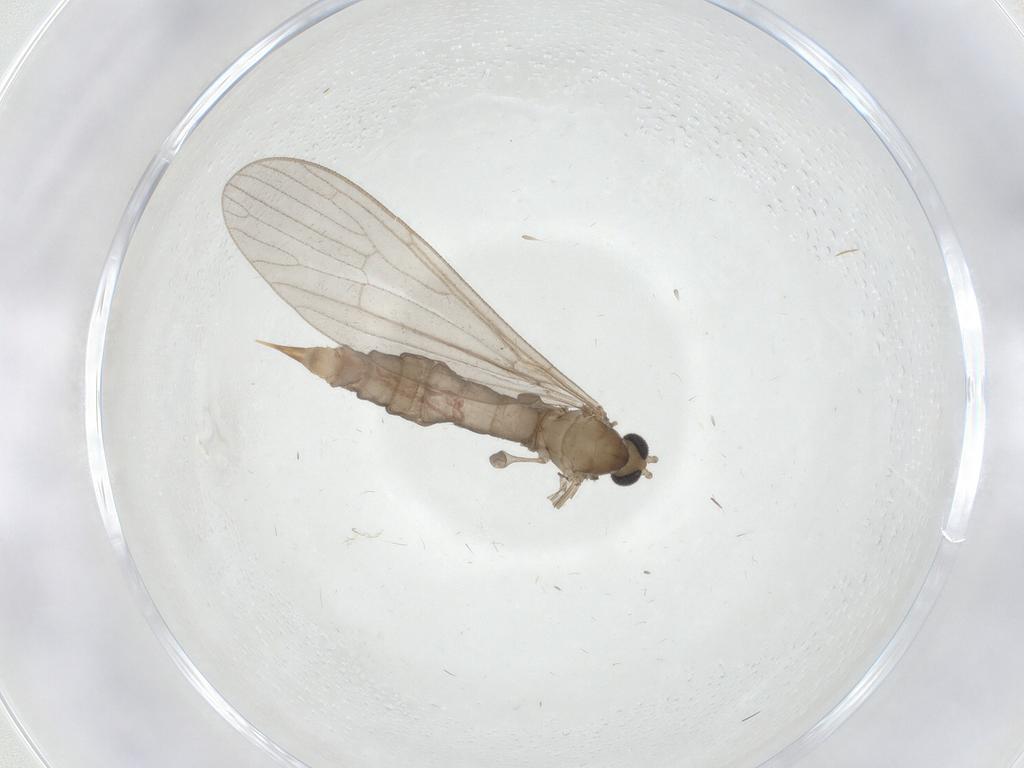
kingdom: Animalia
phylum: Arthropoda
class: Insecta
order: Diptera
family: Limoniidae
